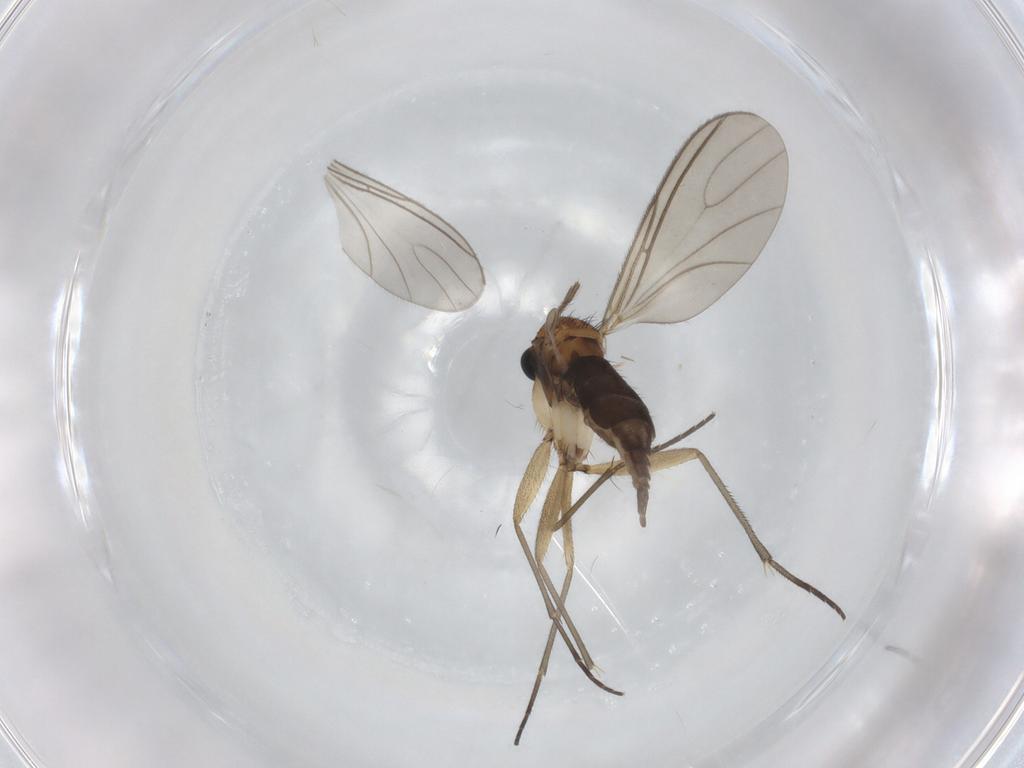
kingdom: Animalia
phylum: Arthropoda
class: Insecta
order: Diptera
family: Sciaridae
